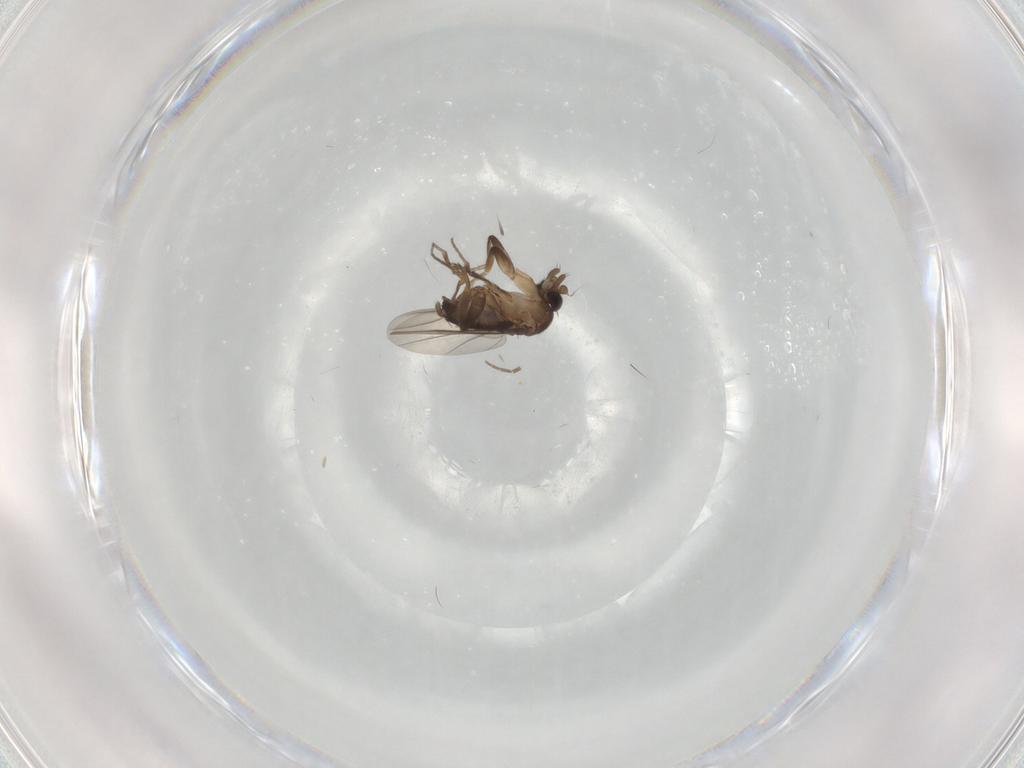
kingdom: Animalia
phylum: Arthropoda
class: Insecta
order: Diptera
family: Phoridae
